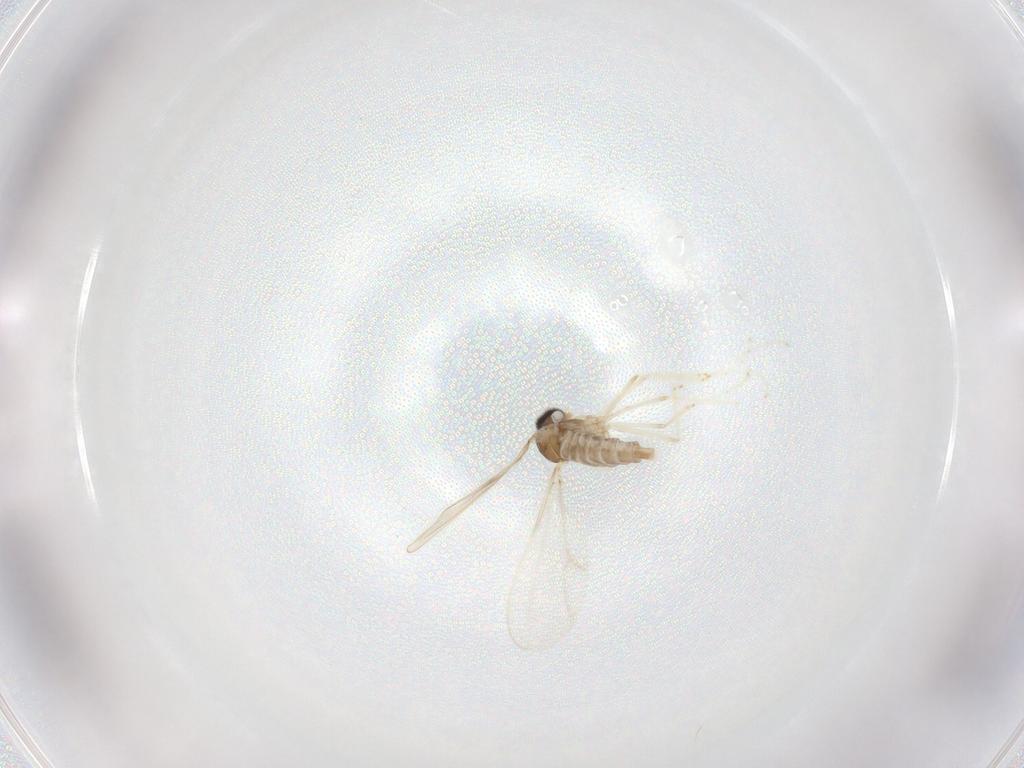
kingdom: Animalia
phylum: Arthropoda
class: Insecta
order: Diptera
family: Cecidomyiidae
